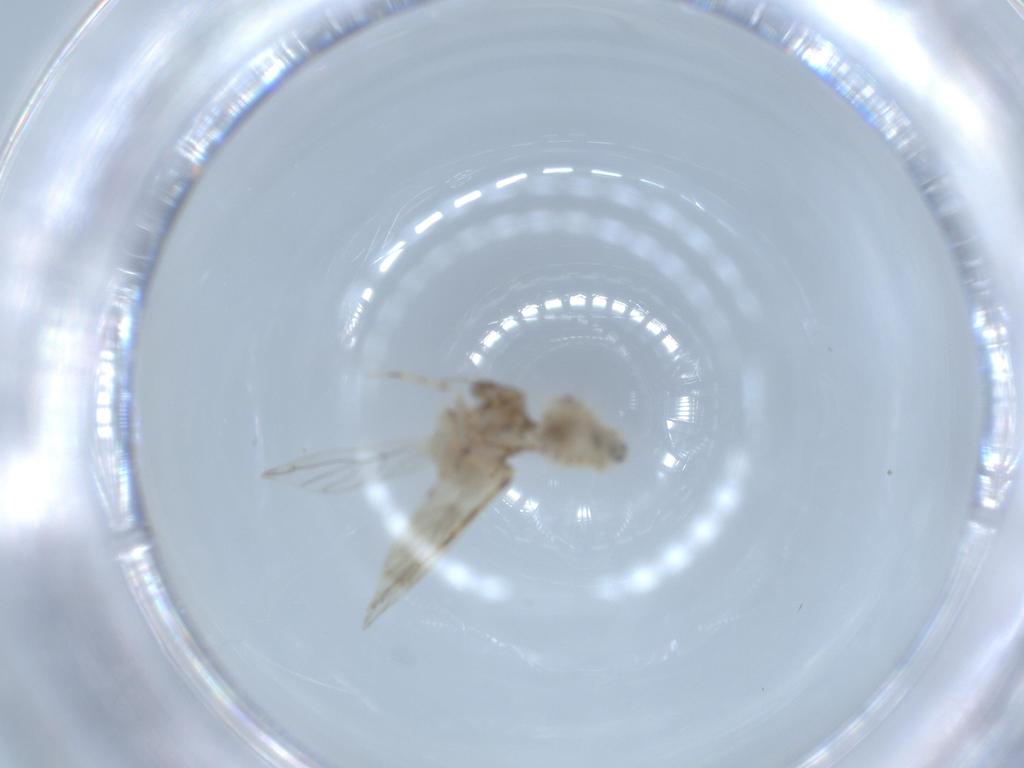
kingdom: Animalia
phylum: Arthropoda
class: Insecta
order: Psocodea
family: Lepidopsocidae
